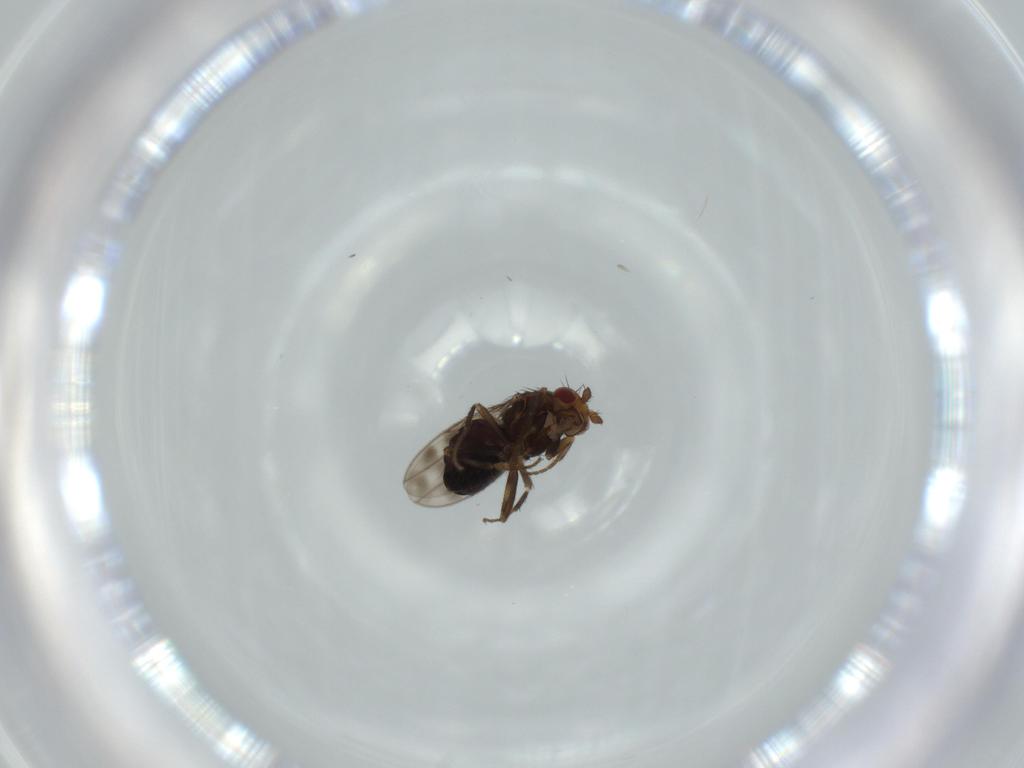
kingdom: Animalia
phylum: Arthropoda
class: Insecta
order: Diptera
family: Sphaeroceridae
